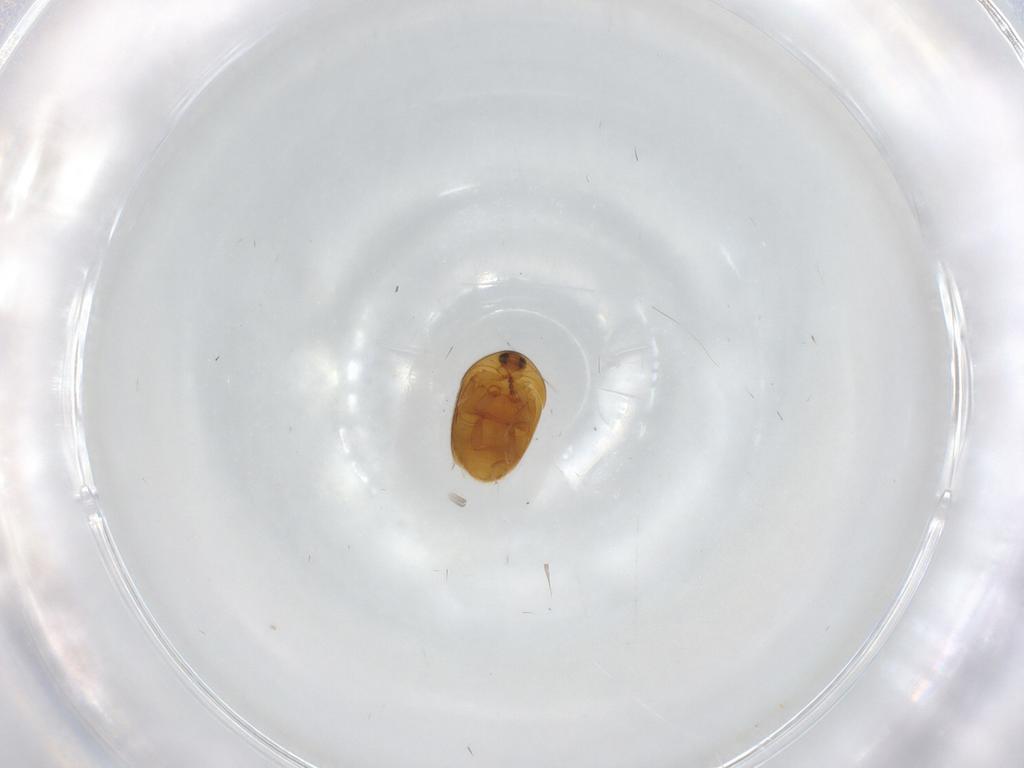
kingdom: Animalia
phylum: Arthropoda
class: Insecta
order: Coleoptera
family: Corylophidae
